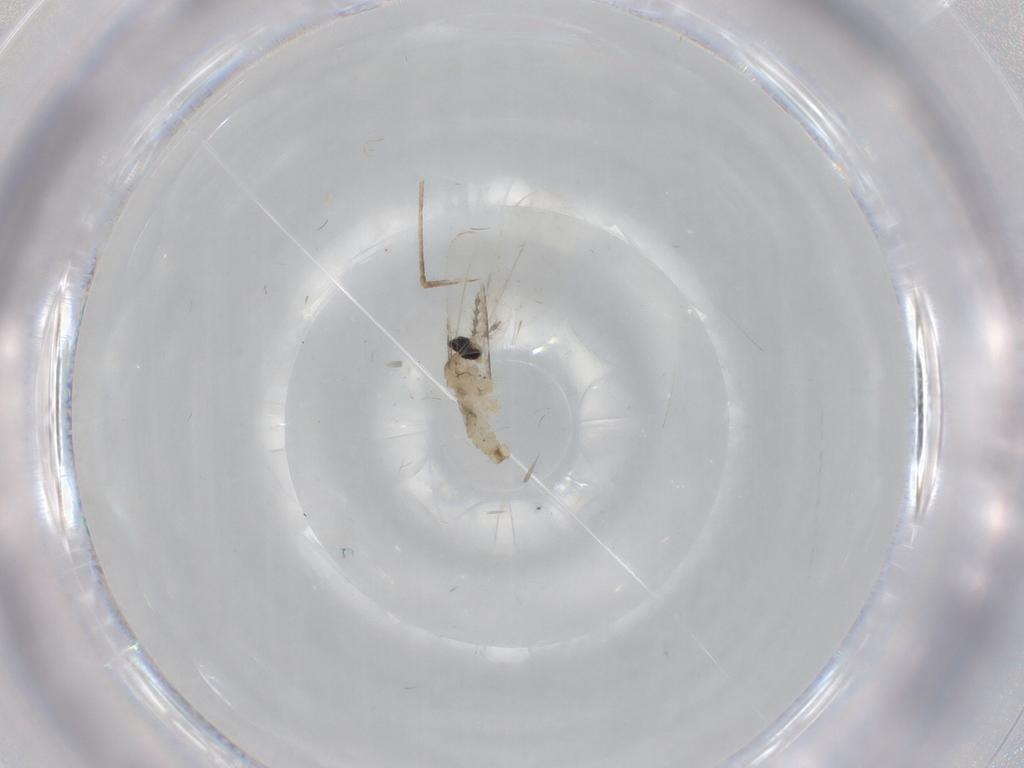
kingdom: Animalia
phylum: Arthropoda
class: Insecta
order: Diptera
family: Cecidomyiidae
